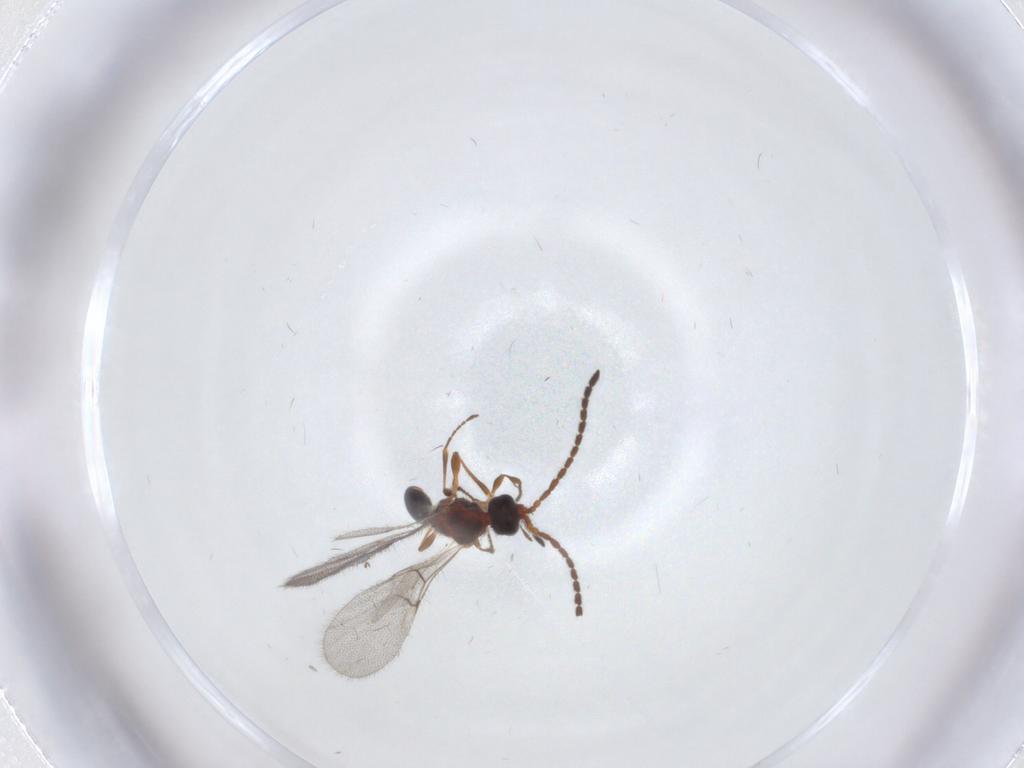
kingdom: Animalia
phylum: Arthropoda
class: Insecta
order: Hymenoptera
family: Diapriidae
